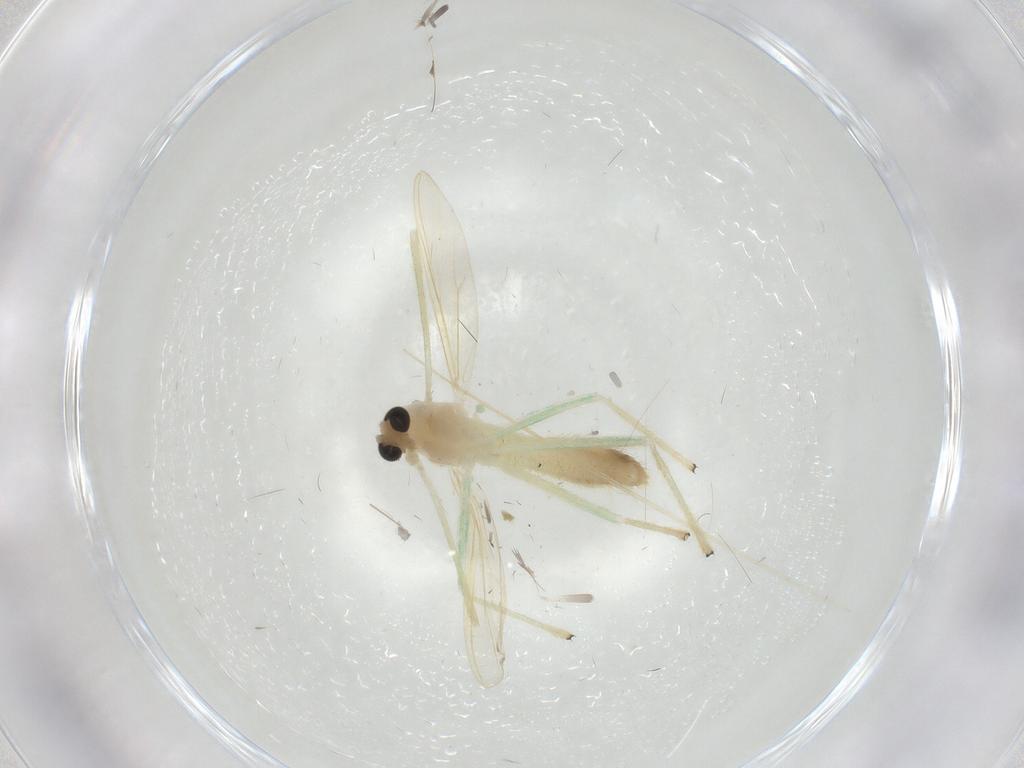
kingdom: Animalia
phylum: Arthropoda
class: Insecta
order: Diptera
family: Chironomidae
